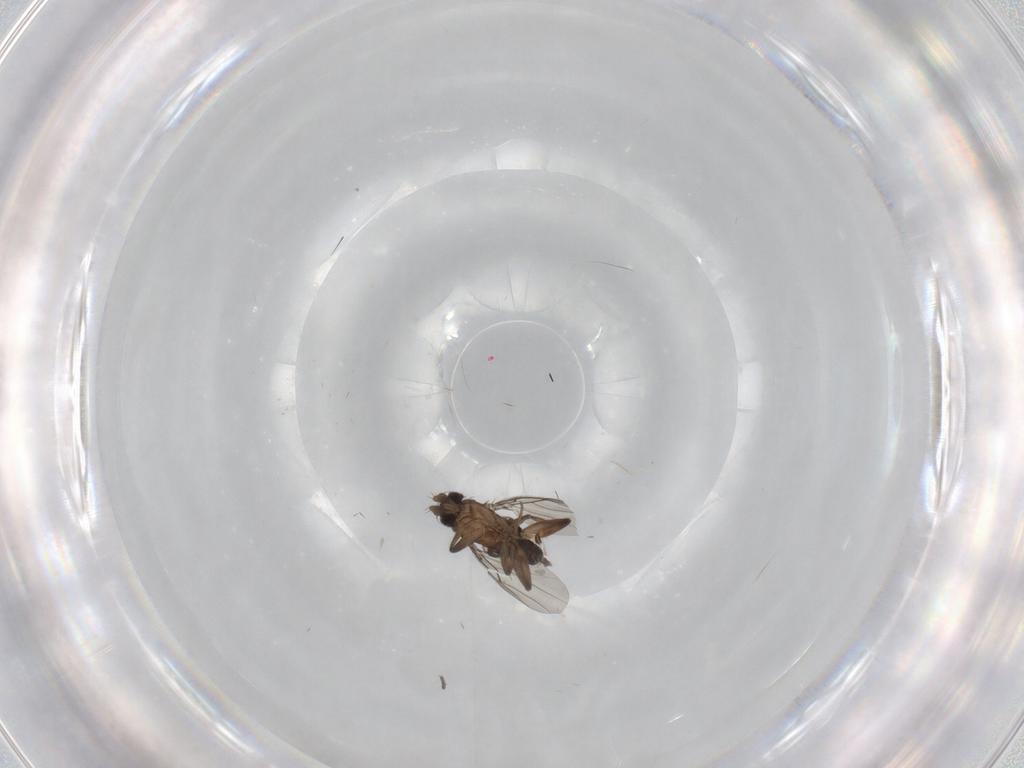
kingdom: Animalia
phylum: Arthropoda
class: Insecta
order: Diptera
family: Phoridae
